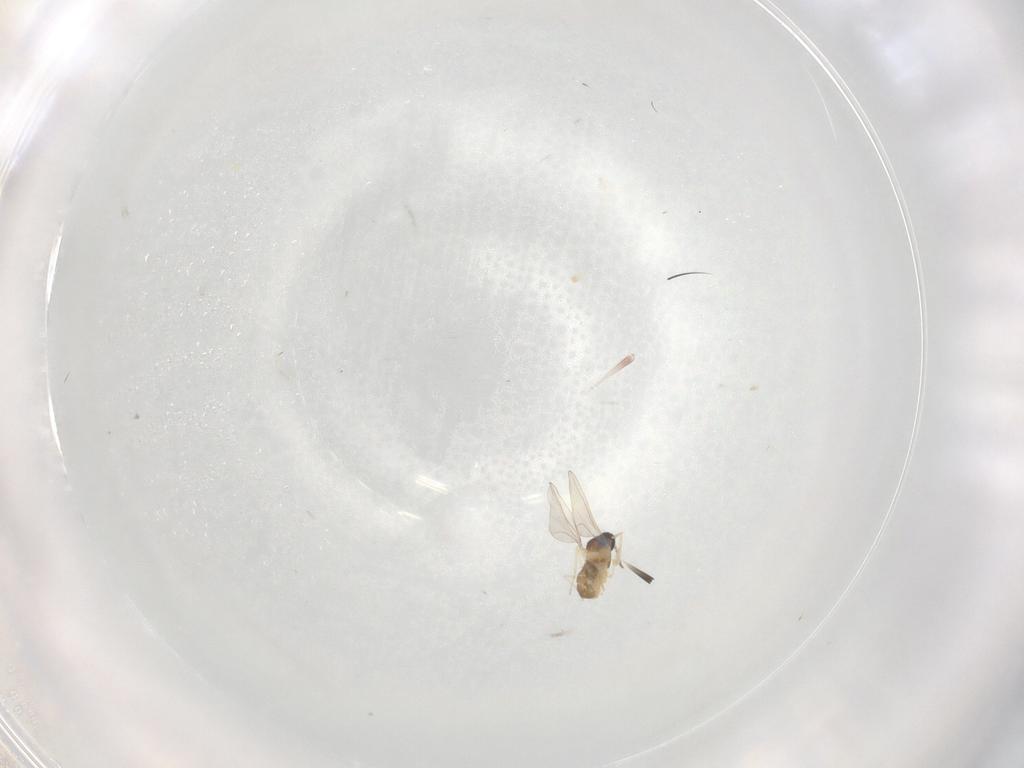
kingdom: Animalia
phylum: Arthropoda
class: Insecta
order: Diptera
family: Cecidomyiidae
